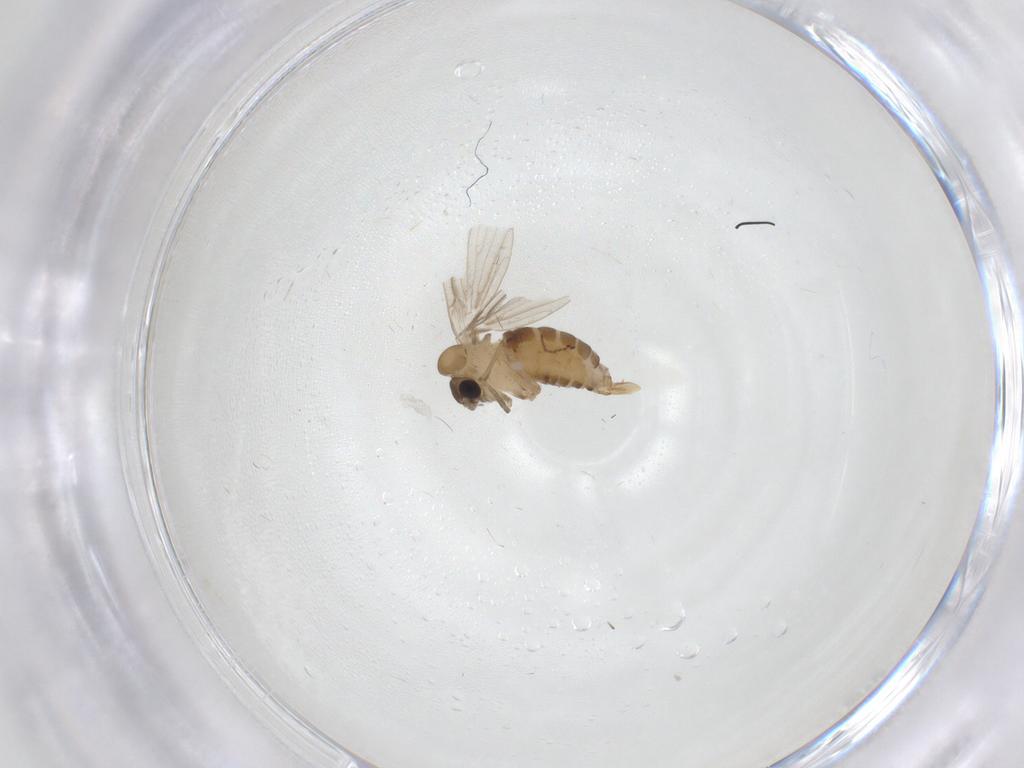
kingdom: Animalia
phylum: Arthropoda
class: Insecta
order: Diptera
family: Psychodidae
